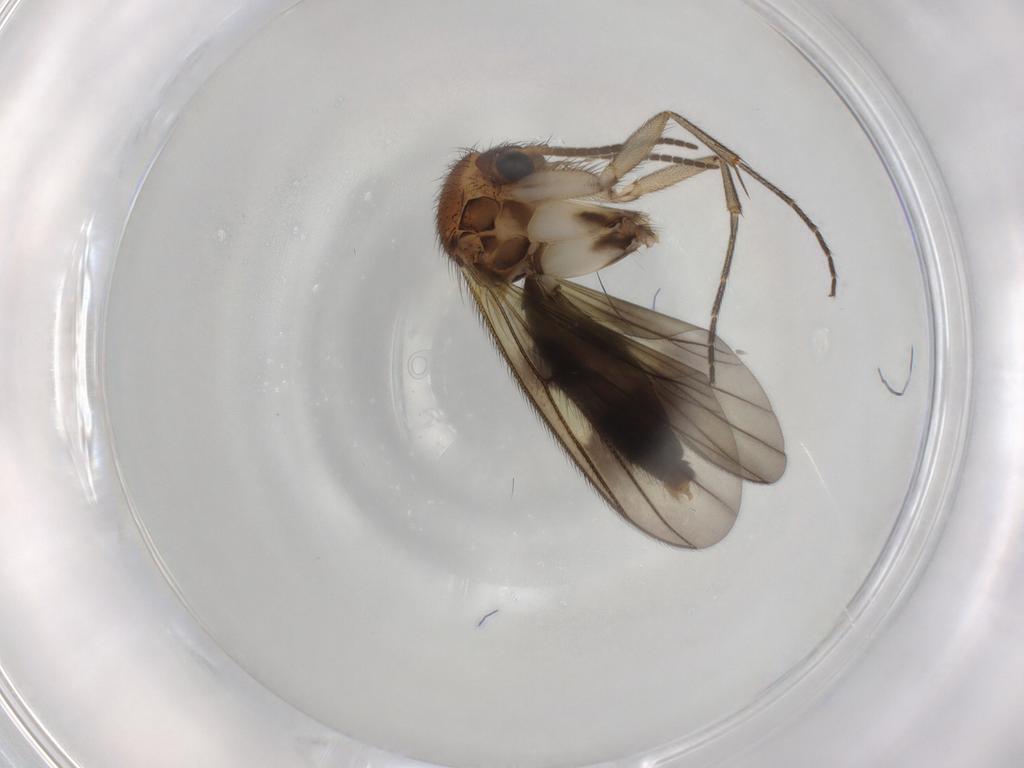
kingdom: Animalia
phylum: Arthropoda
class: Insecta
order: Diptera
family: Mycetophilidae
